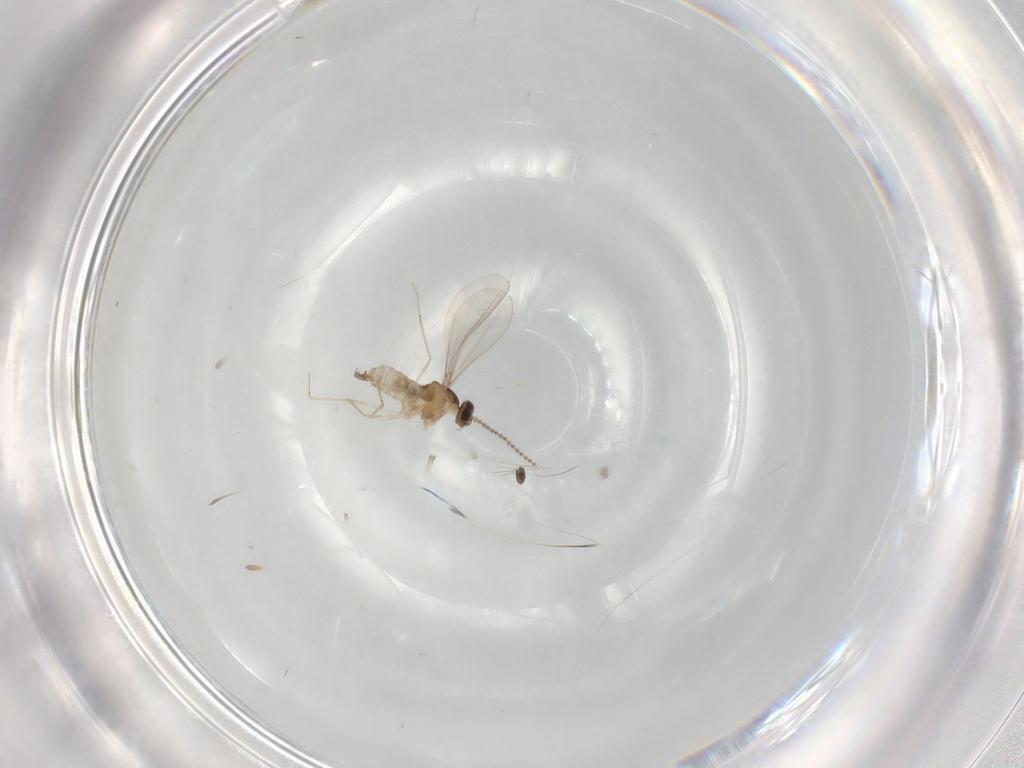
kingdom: Animalia
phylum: Arthropoda
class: Insecta
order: Diptera
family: Cecidomyiidae
